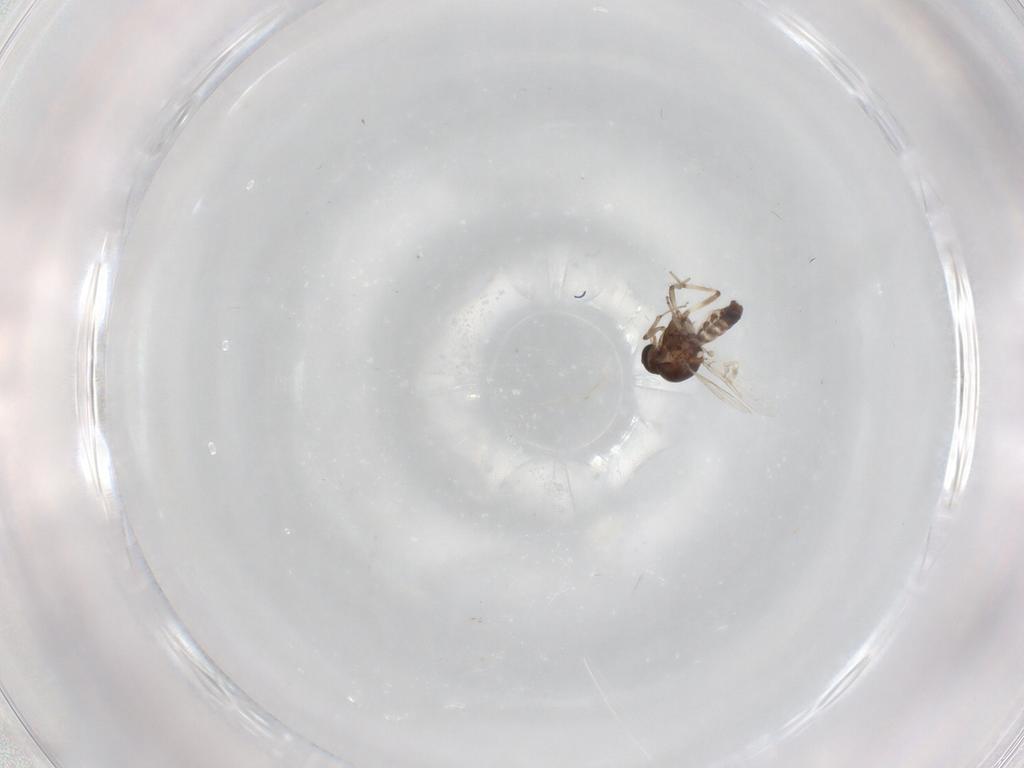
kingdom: Animalia
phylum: Arthropoda
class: Insecta
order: Diptera
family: Ceratopogonidae
